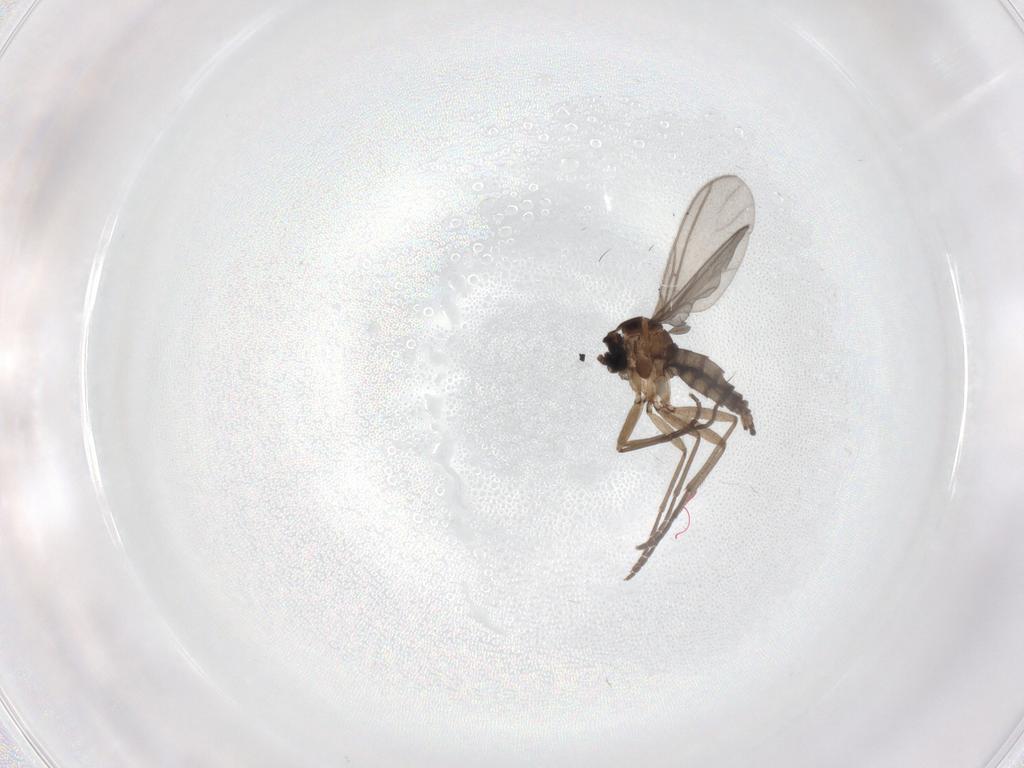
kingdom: Animalia
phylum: Arthropoda
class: Insecta
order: Diptera
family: Sciaridae
